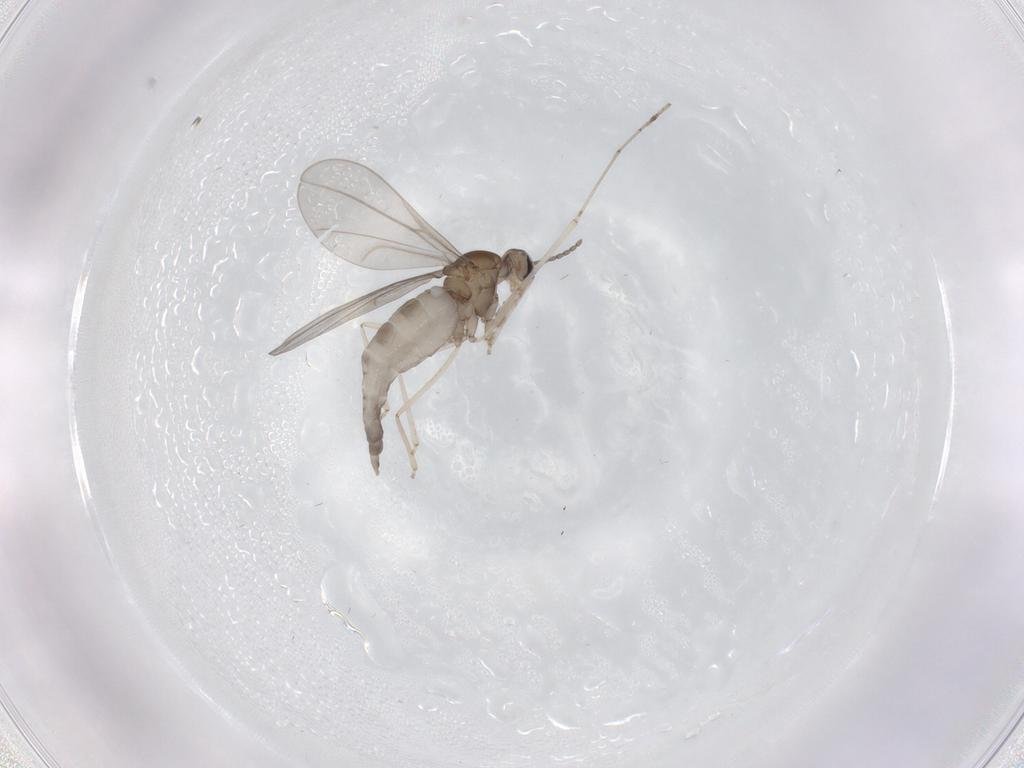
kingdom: Animalia
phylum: Arthropoda
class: Insecta
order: Diptera
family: Cecidomyiidae
